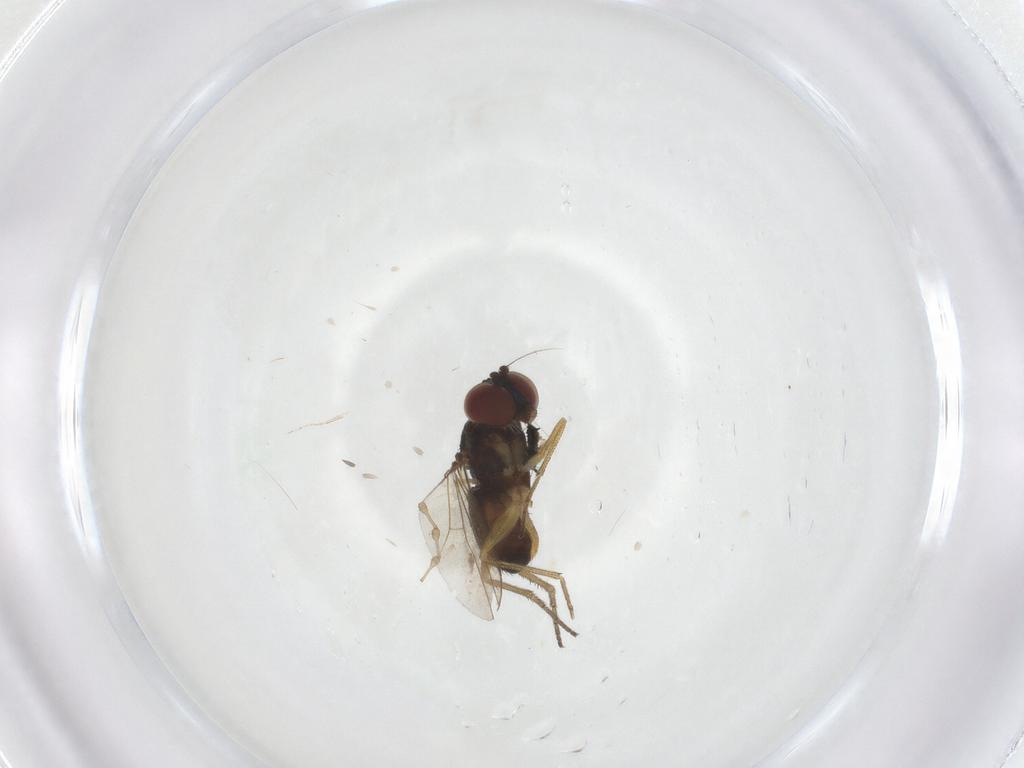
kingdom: Animalia
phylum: Arthropoda
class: Insecta
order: Diptera
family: Dolichopodidae
